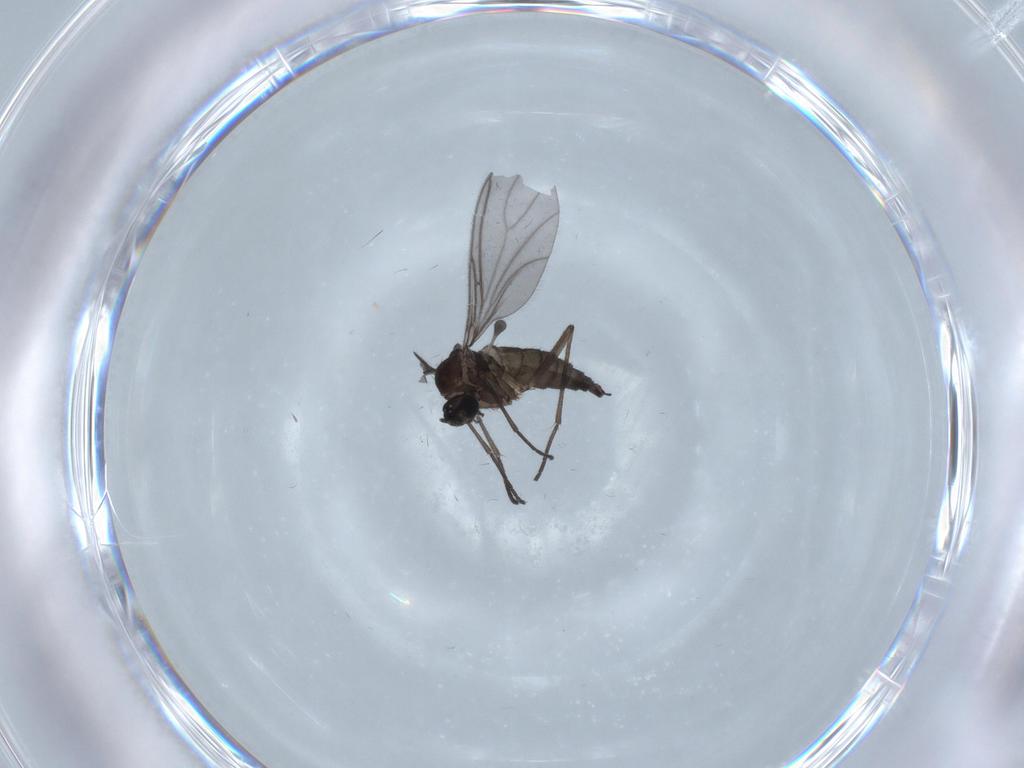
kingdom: Animalia
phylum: Arthropoda
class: Insecta
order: Diptera
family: Sciaridae
